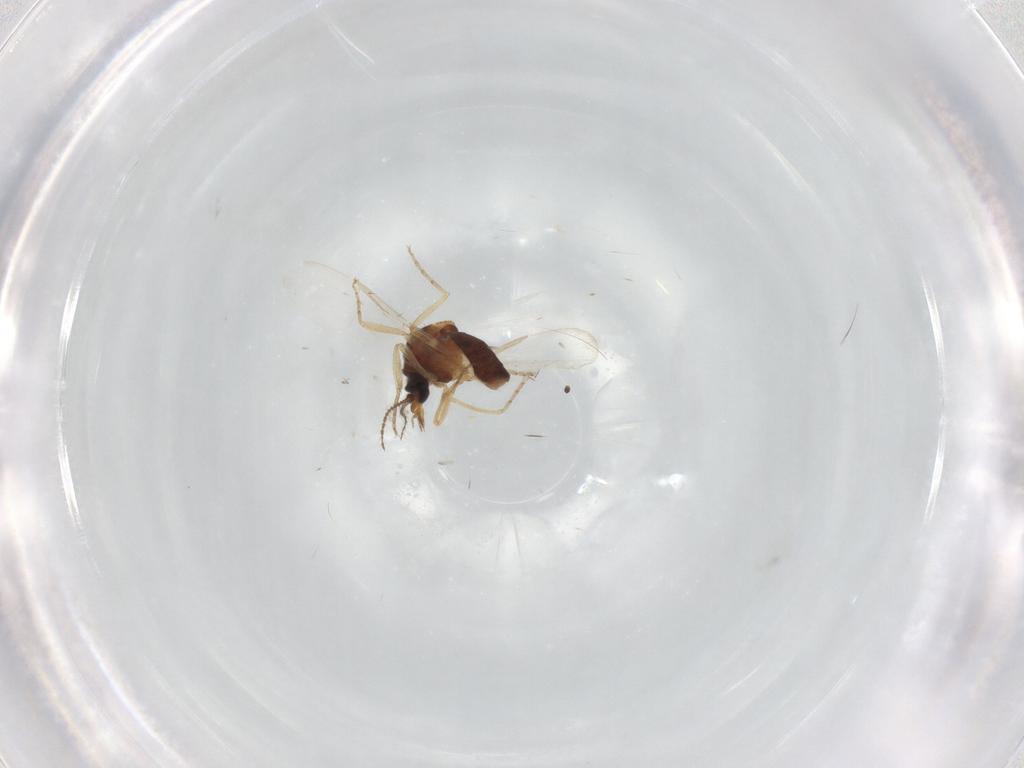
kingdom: Animalia
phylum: Arthropoda
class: Insecta
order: Diptera
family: Ceratopogonidae
